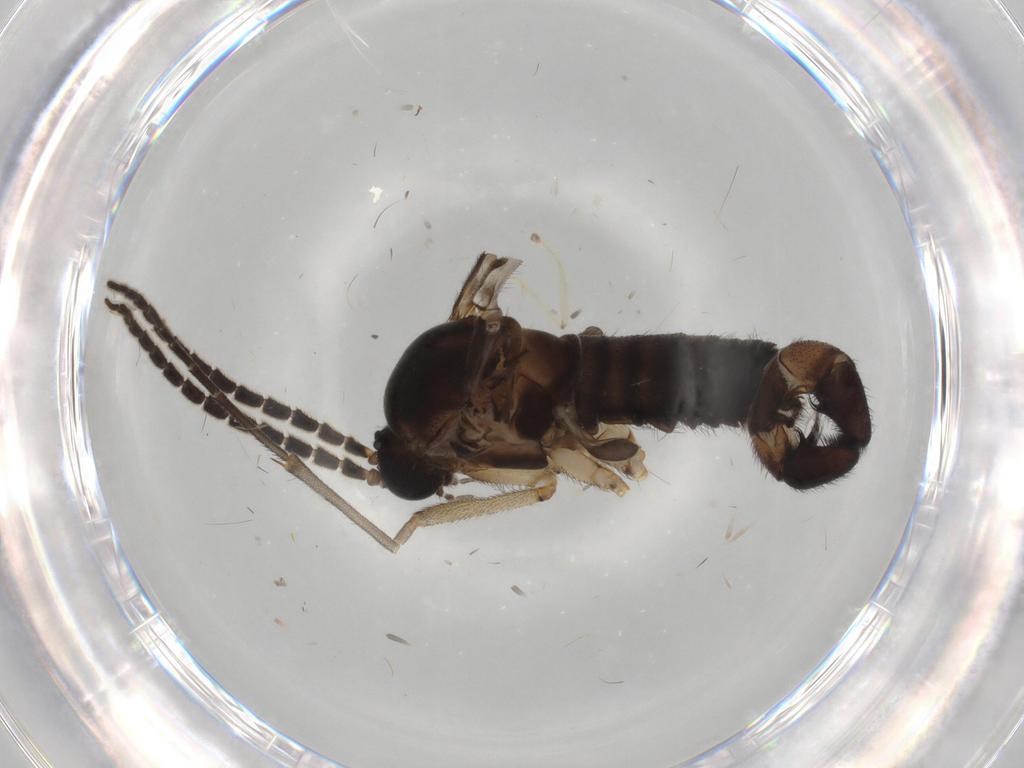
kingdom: Animalia
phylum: Arthropoda
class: Insecta
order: Diptera
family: Sciaridae
